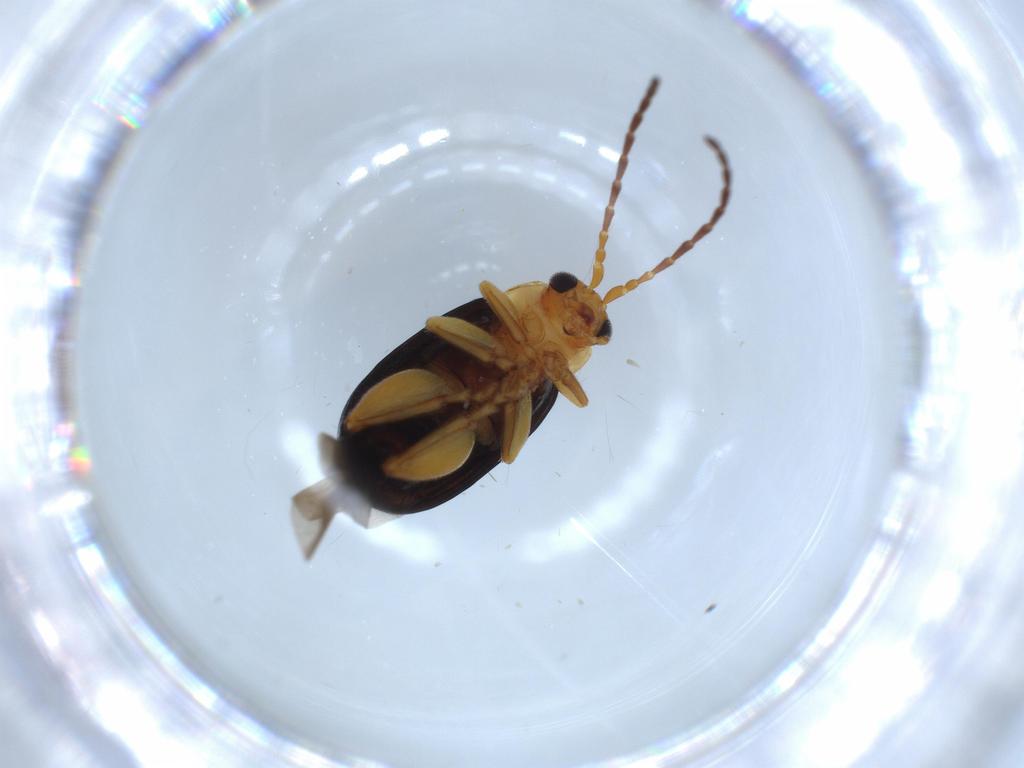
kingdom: Animalia
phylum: Arthropoda
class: Insecta
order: Coleoptera
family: Chrysomelidae
